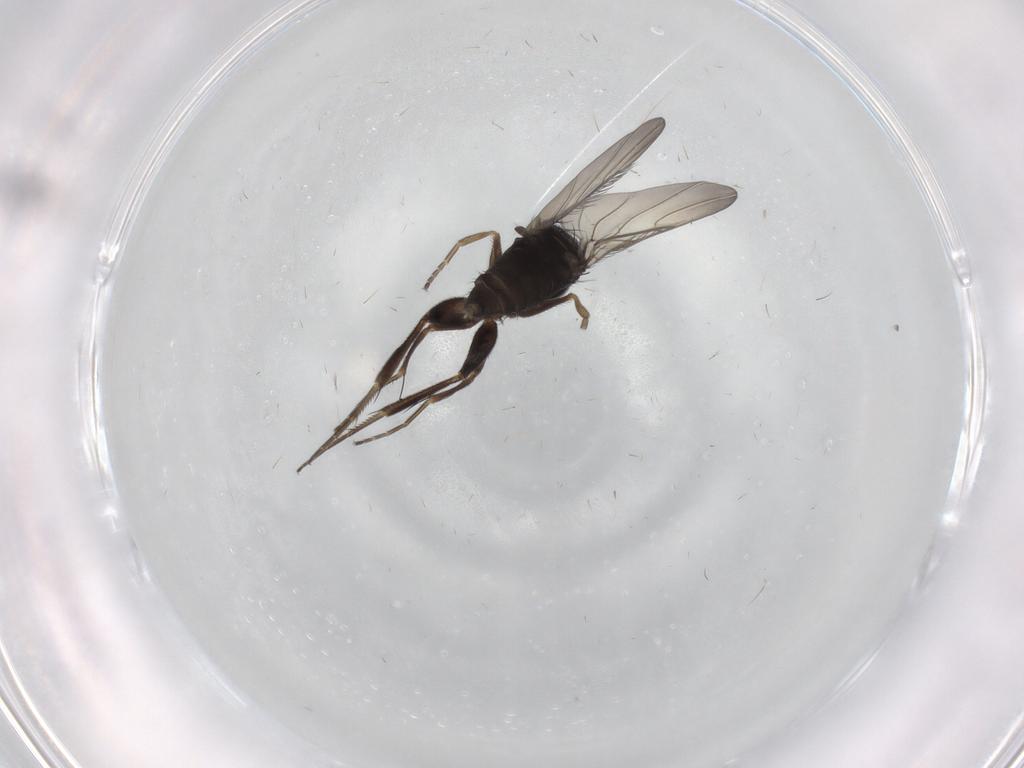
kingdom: Animalia
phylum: Arthropoda
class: Insecta
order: Diptera
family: Phoridae
